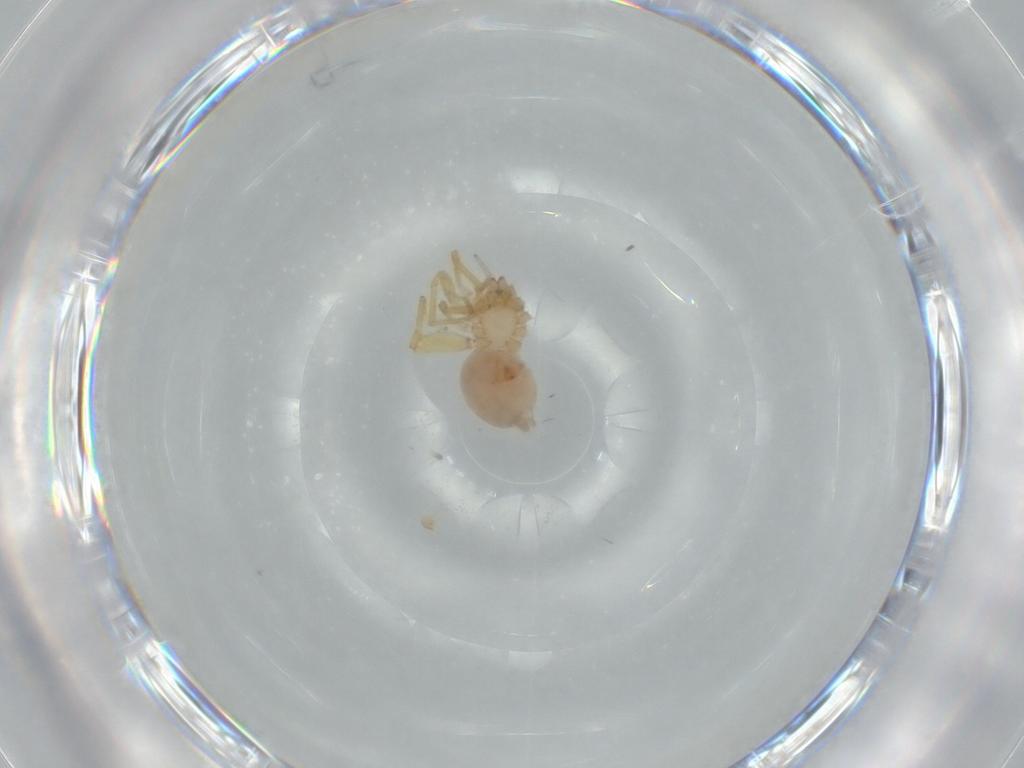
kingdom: Animalia
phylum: Arthropoda
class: Arachnida
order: Araneae
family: Oonopidae
